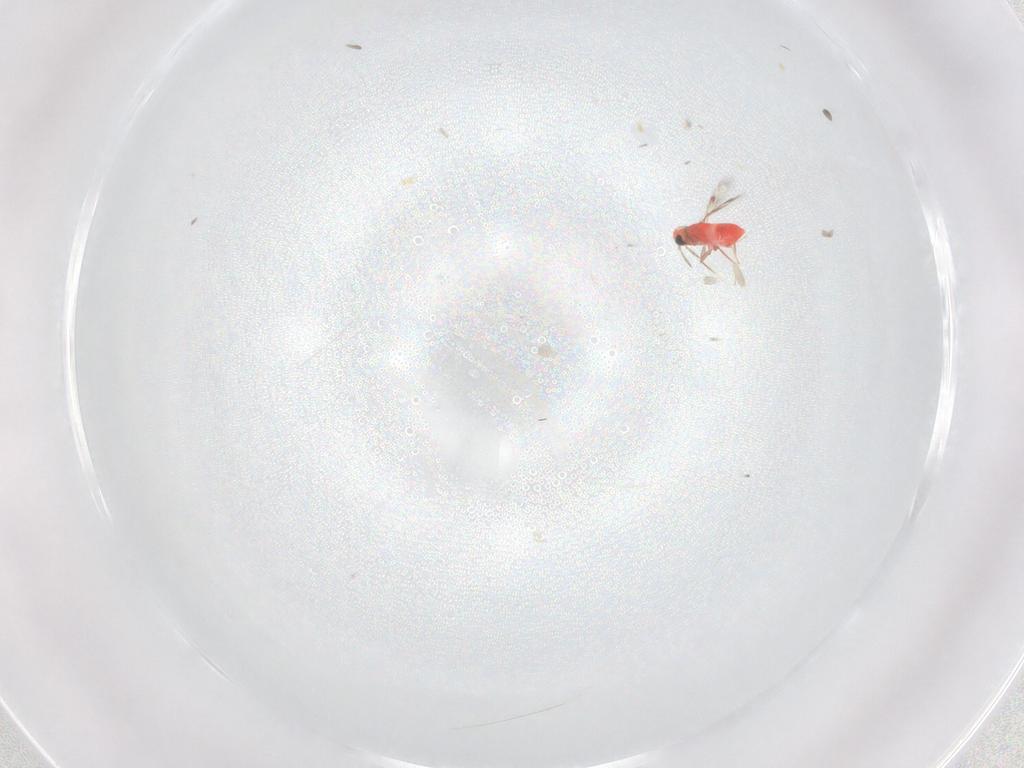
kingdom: Animalia
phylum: Arthropoda
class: Insecta
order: Hymenoptera
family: Trichogrammatidae
